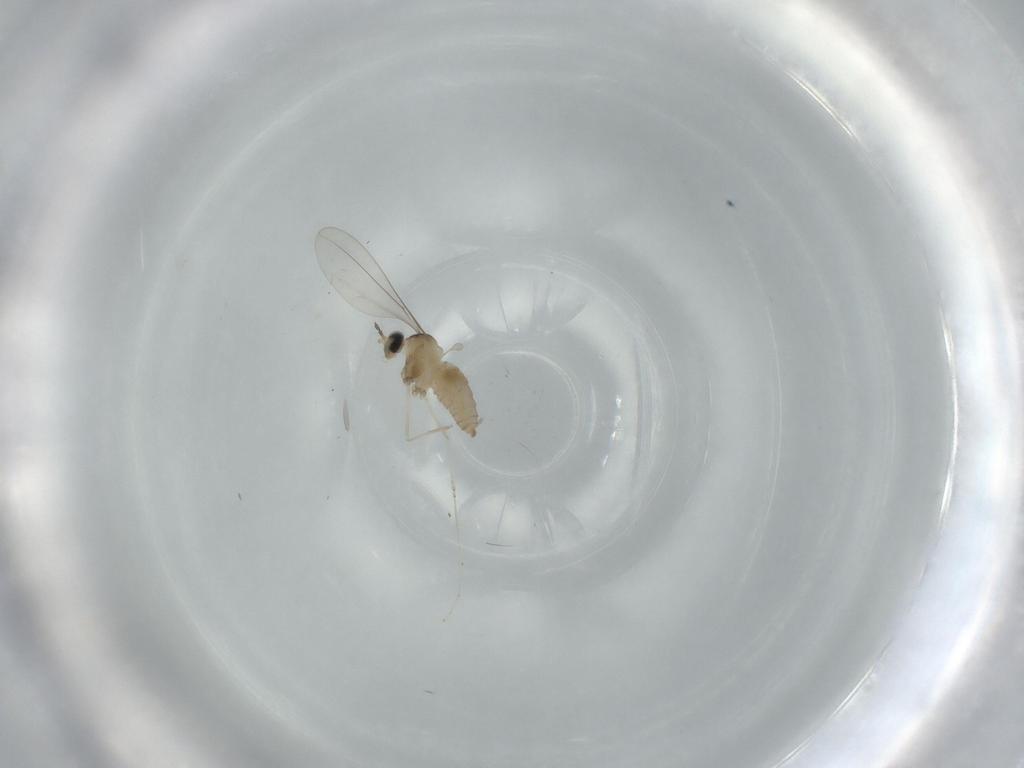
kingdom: Animalia
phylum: Arthropoda
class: Insecta
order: Diptera
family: Cecidomyiidae
